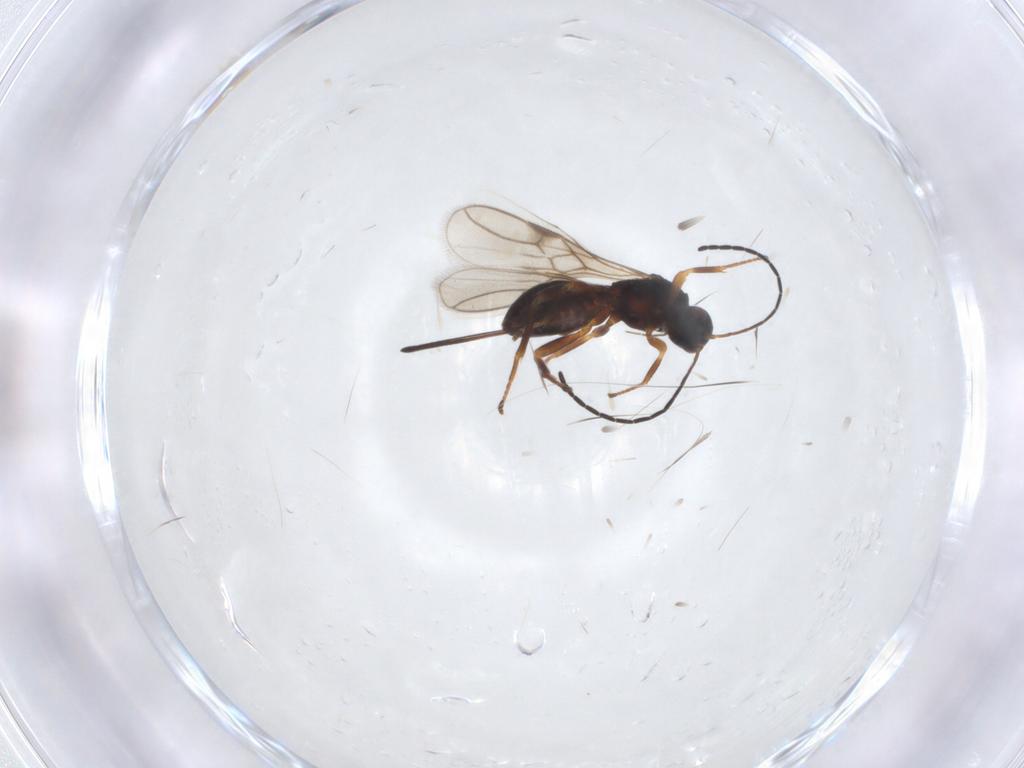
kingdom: Animalia
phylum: Arthropoda
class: Insecta
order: Hymenoptera
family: Braconidae
